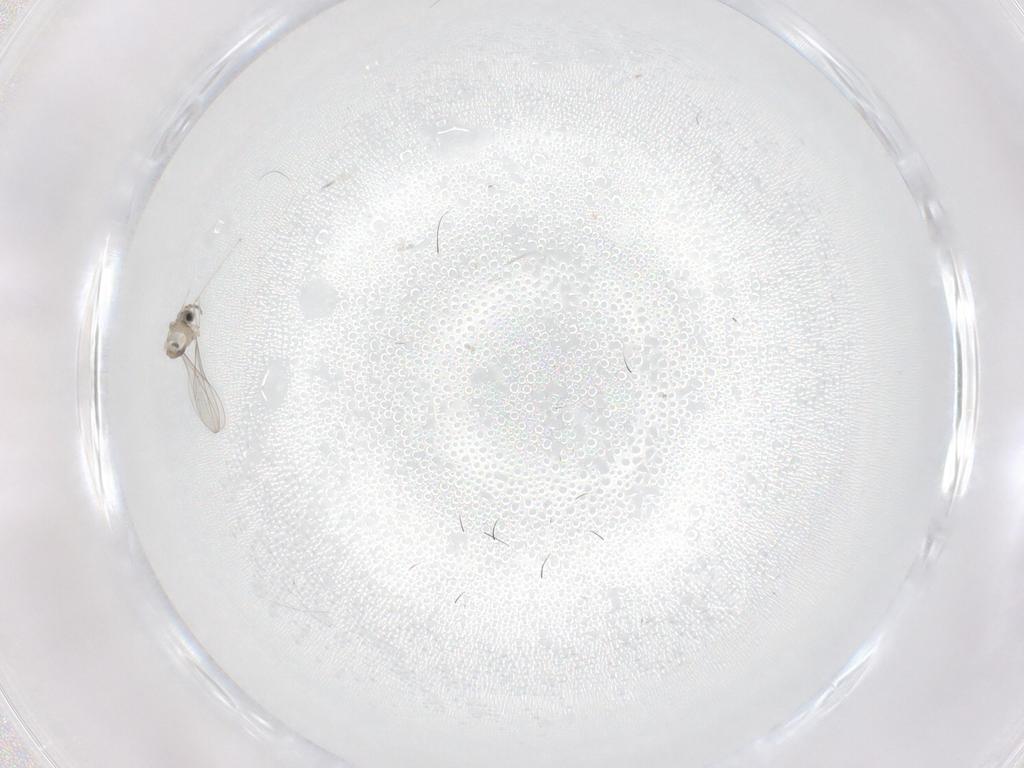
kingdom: Animalia
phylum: Arthropoda
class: Insecta
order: Diptera
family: Cecidomyiidae
